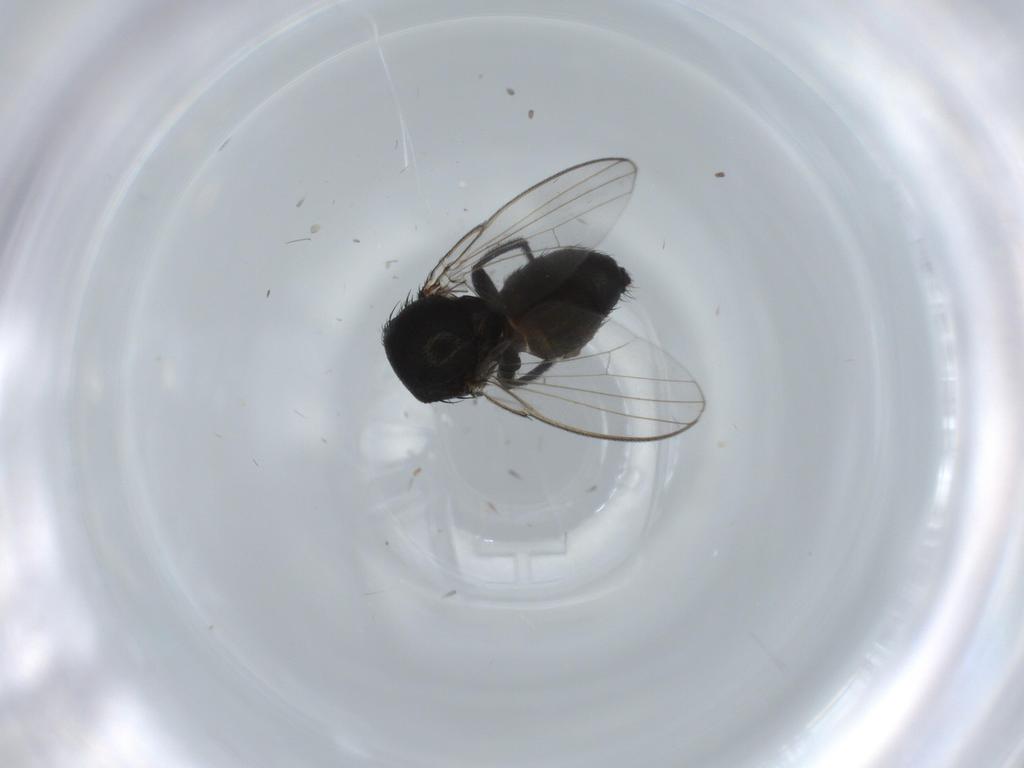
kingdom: Animalia
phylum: Arthropoda
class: Insecta
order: Diptera
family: Milichiidae
